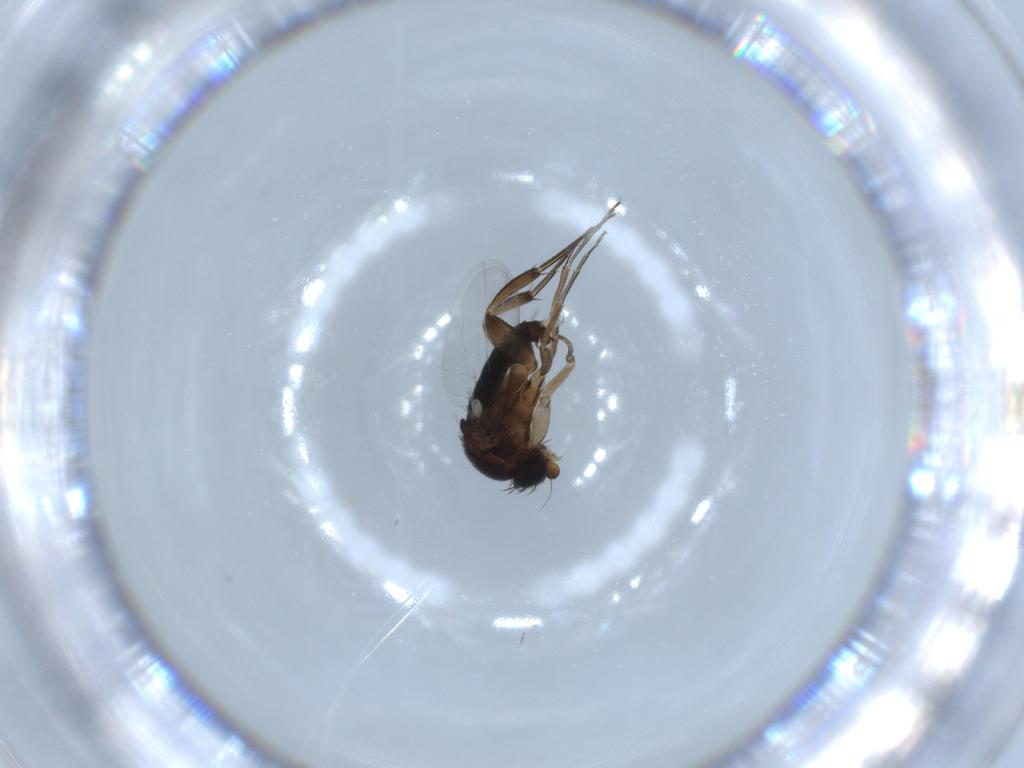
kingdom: Animalia
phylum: Arthropoda
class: Insecta
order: Diptera
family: Phoridae
